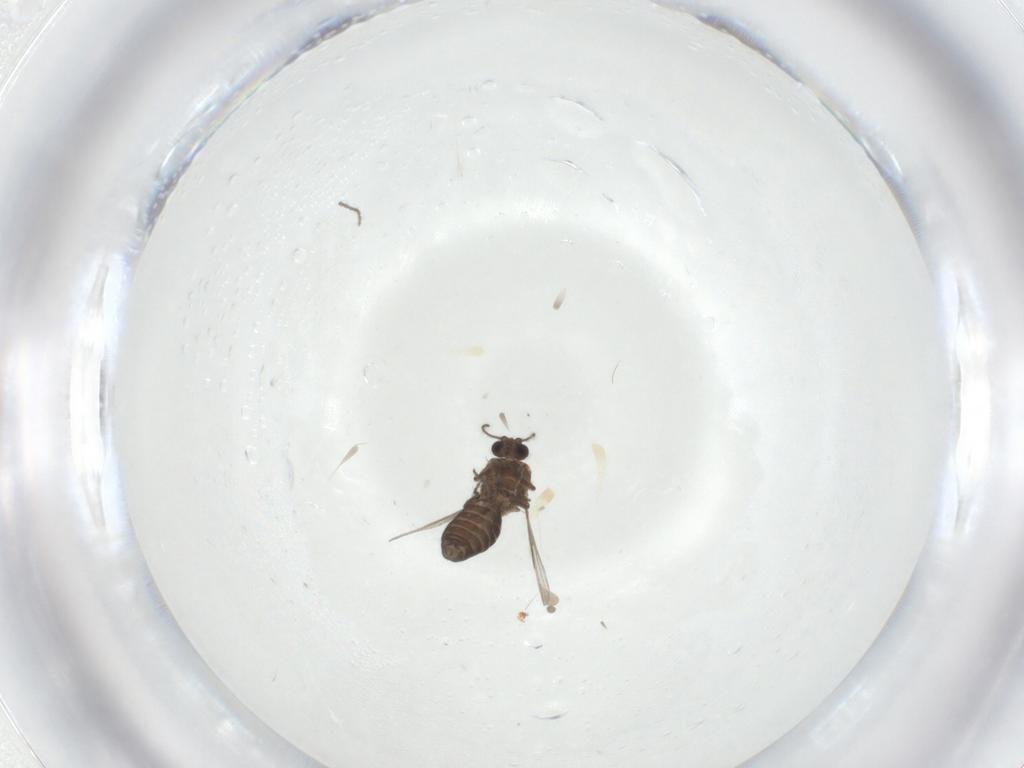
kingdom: Animalia
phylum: Arthropoda
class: Insecta
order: Diptera
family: Ceratopogonidae
